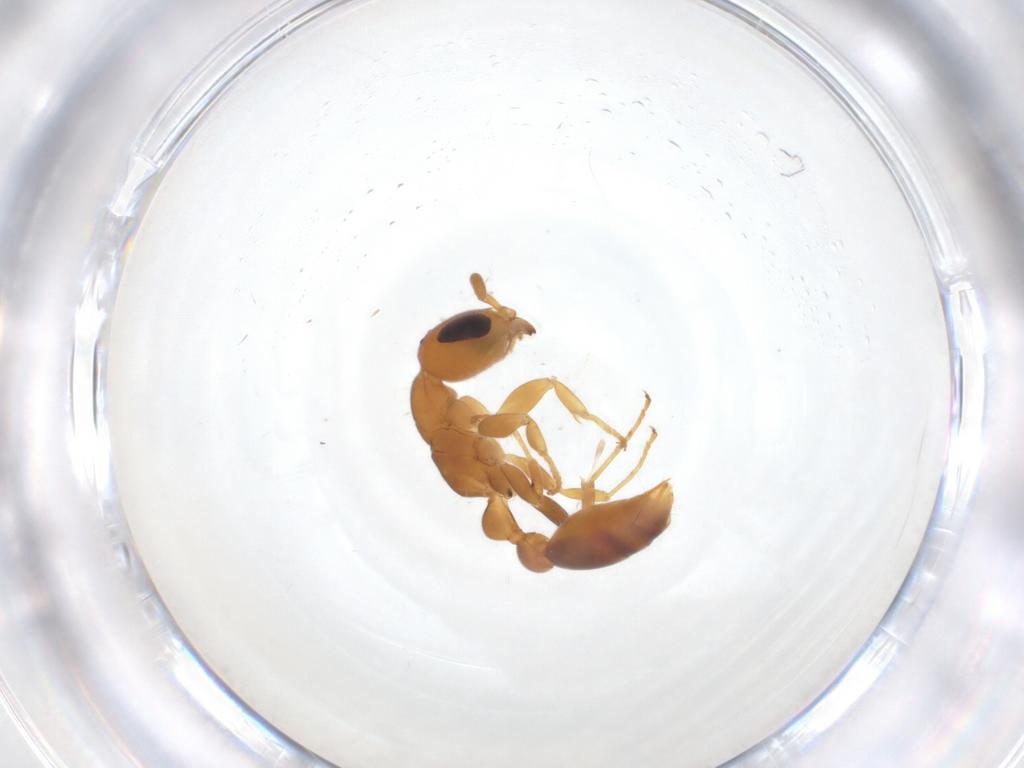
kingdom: Animalia
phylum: Arthropoda
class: Insecta
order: Hymenoptera
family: Formicidae
